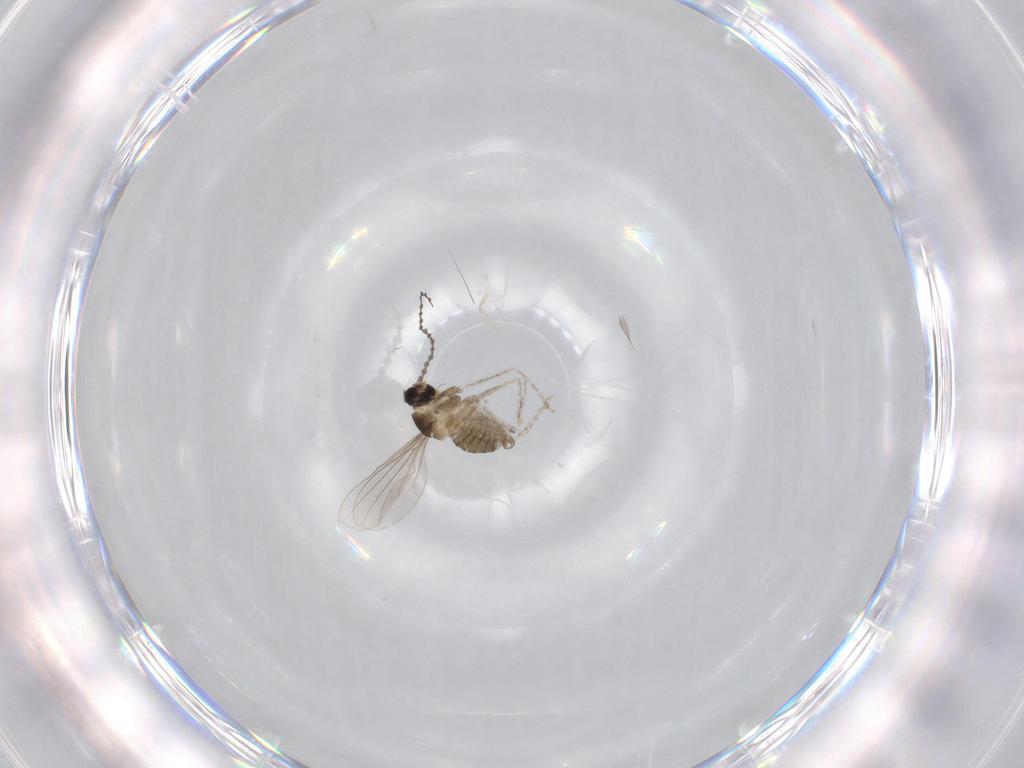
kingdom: Animalia
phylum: Arthropoda
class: Insecta
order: Diptera
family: Cecidomyiidae
